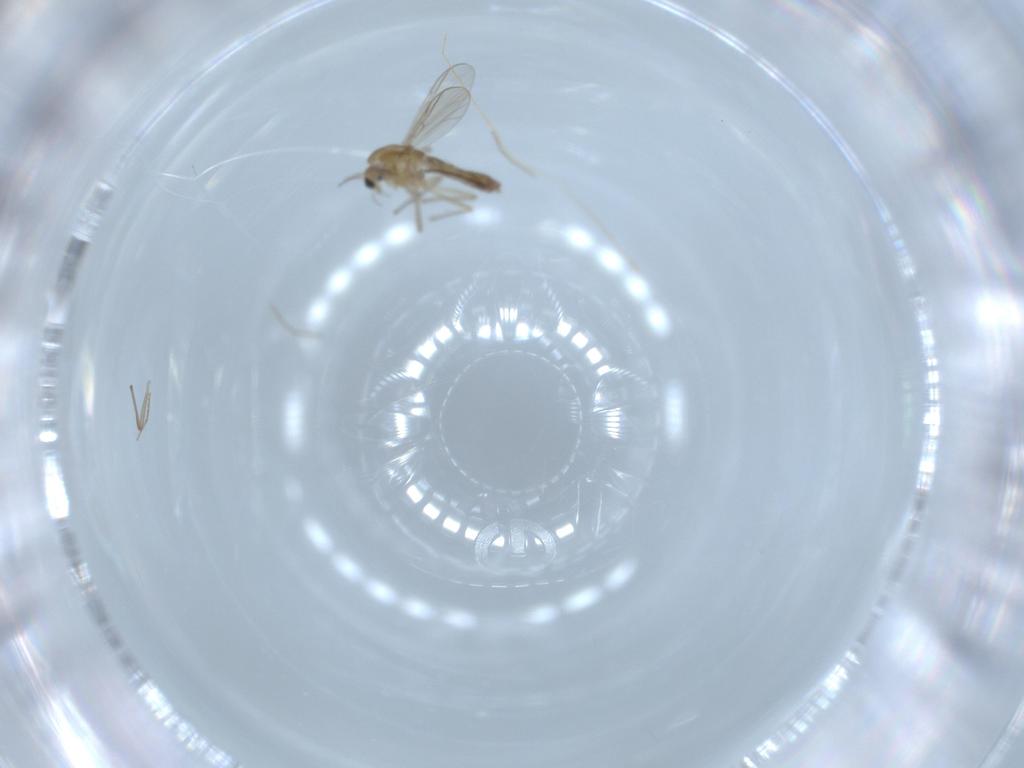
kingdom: Animalia
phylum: Arthropoda
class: Insecta
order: Diptera
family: Chironomidae
